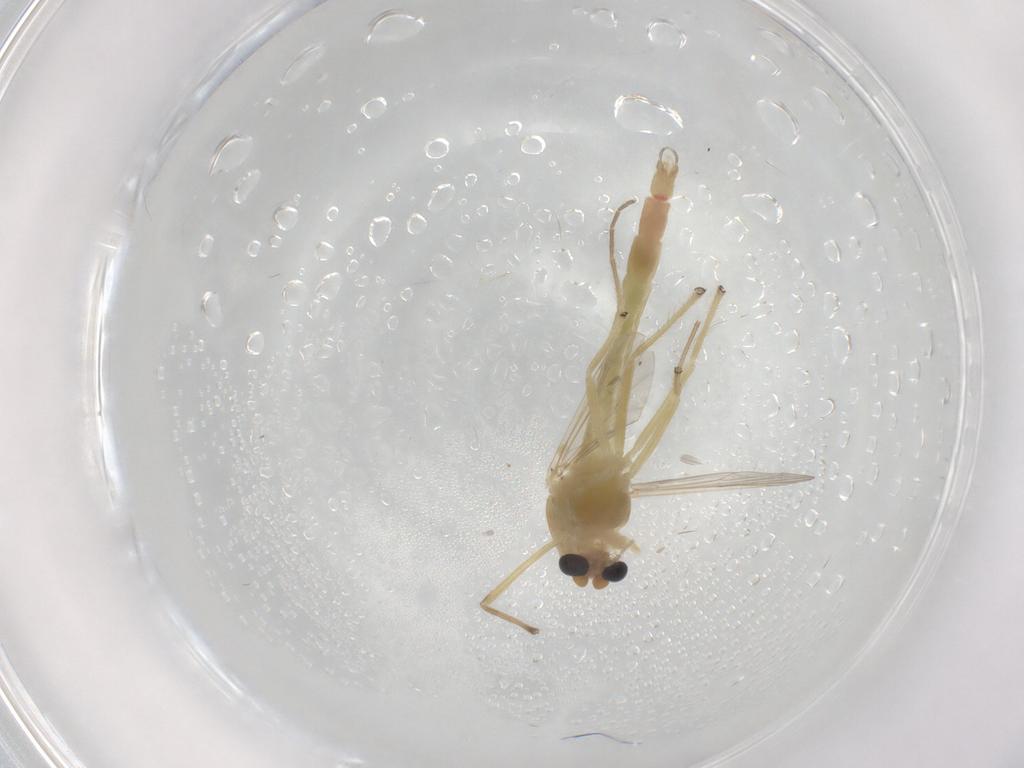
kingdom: Animalia
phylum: Arthropoda
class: Insecta
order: Diptera
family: Chironomidae
